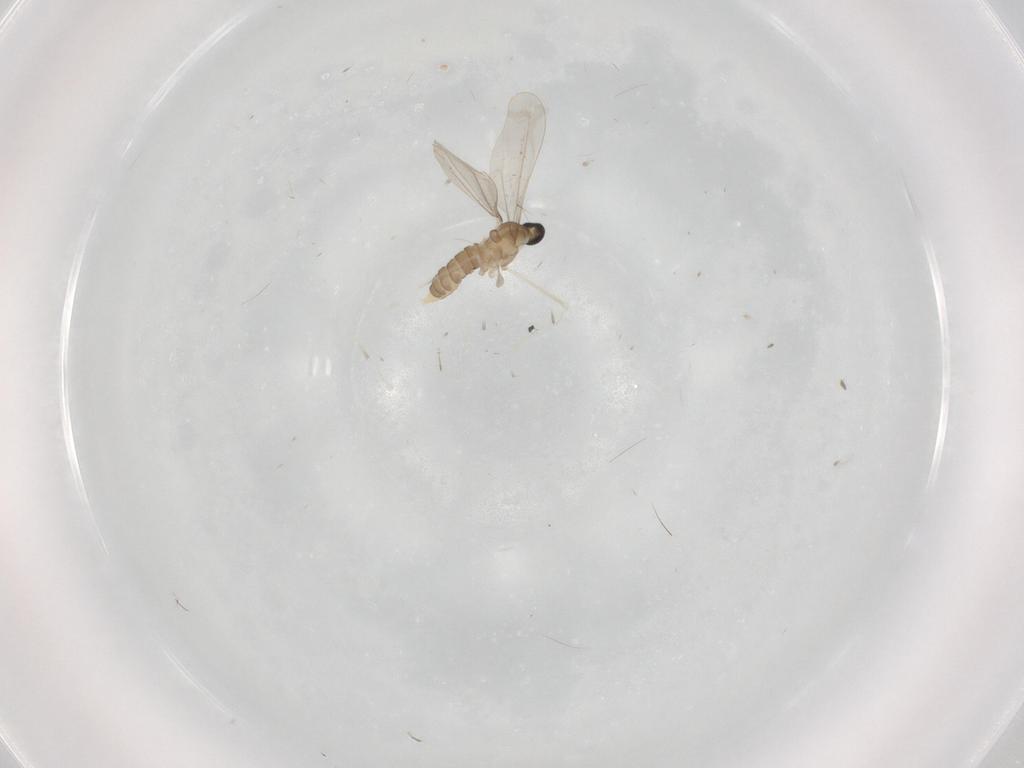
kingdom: Animalia
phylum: Arthropoda
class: Insecta
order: Diptera
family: Cecidomyiidae
